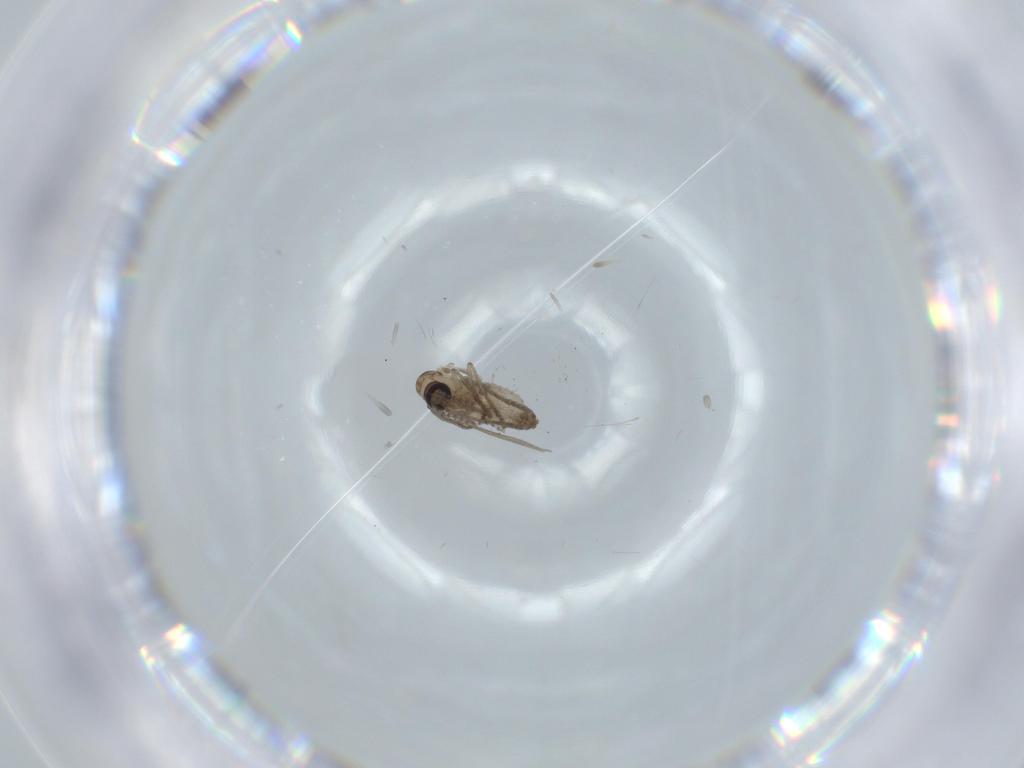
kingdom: Animalia
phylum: Arthropoda
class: Insecta
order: Diptera
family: Psychodidae
